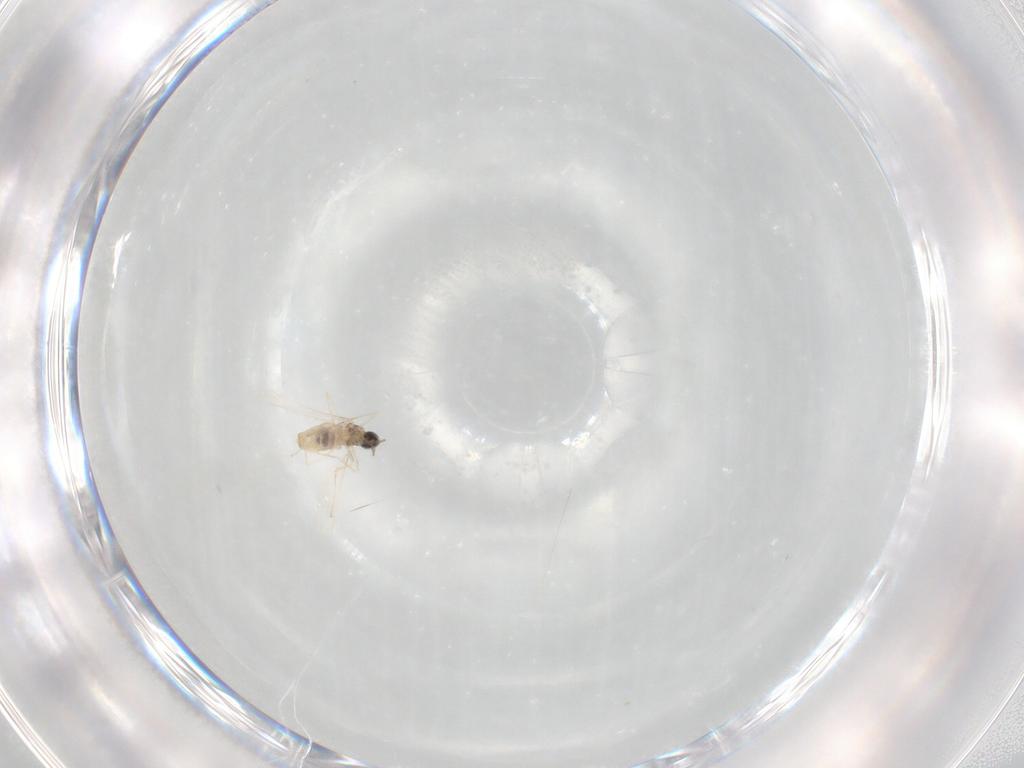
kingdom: Animalia
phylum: Arthropoda
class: Insecta
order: Diptera
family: Cecidomyiidae
